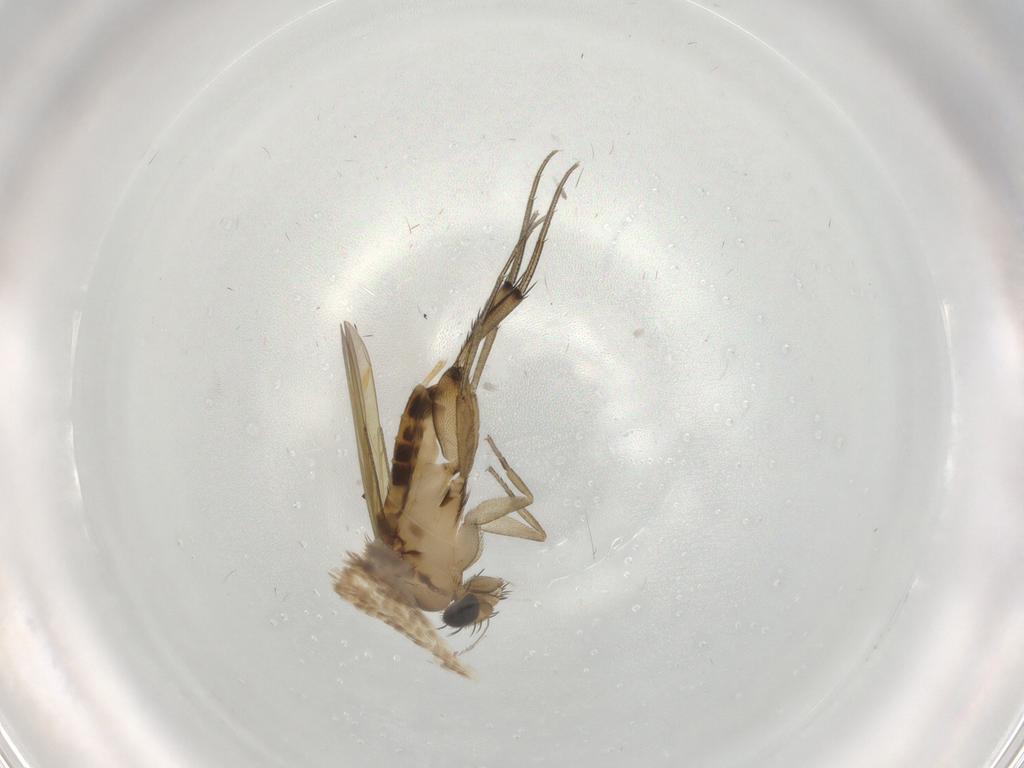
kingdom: Animalia
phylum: Arthropoda
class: Insecta
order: Diptera
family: Phoridae
